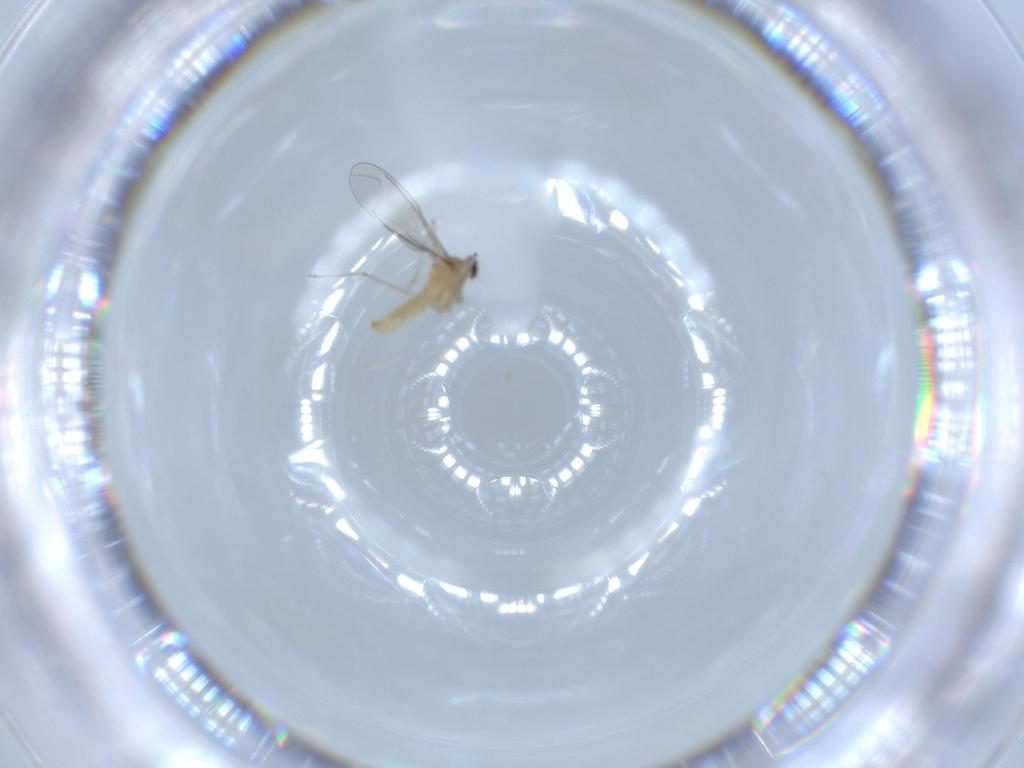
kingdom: Animalia
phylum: Arthropoda
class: Insecta
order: Diptera
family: Cecidomyiidae
